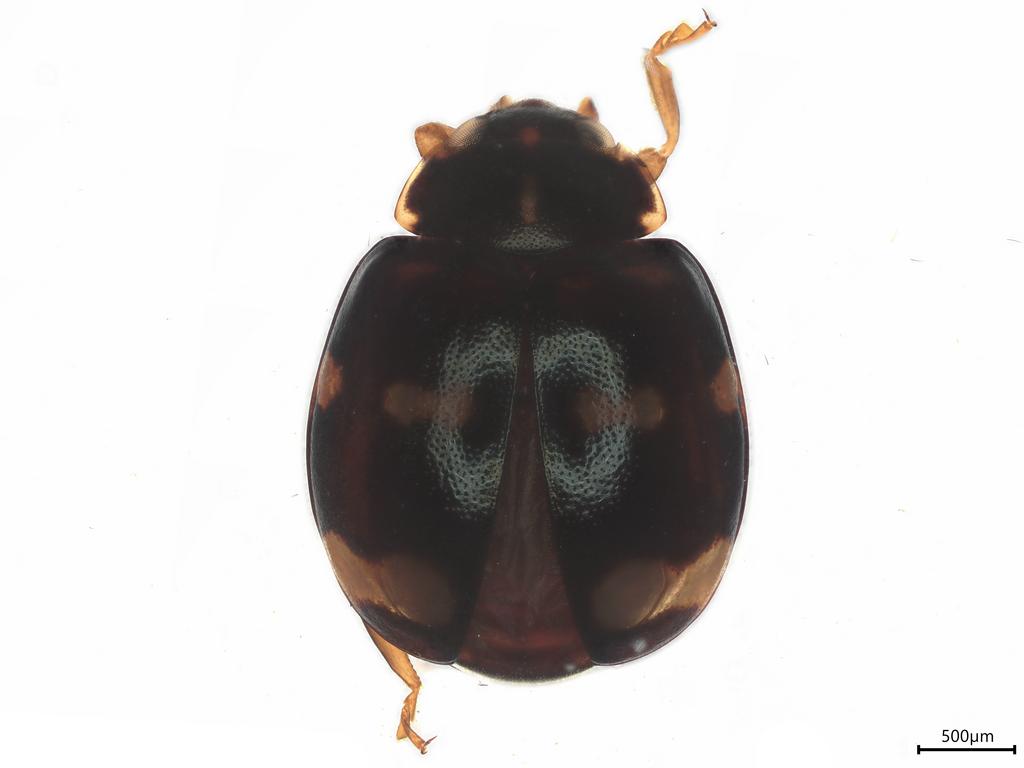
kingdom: Animalia
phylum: Arthropoda
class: Insecta
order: Coleoptera
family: Coccinellidae
